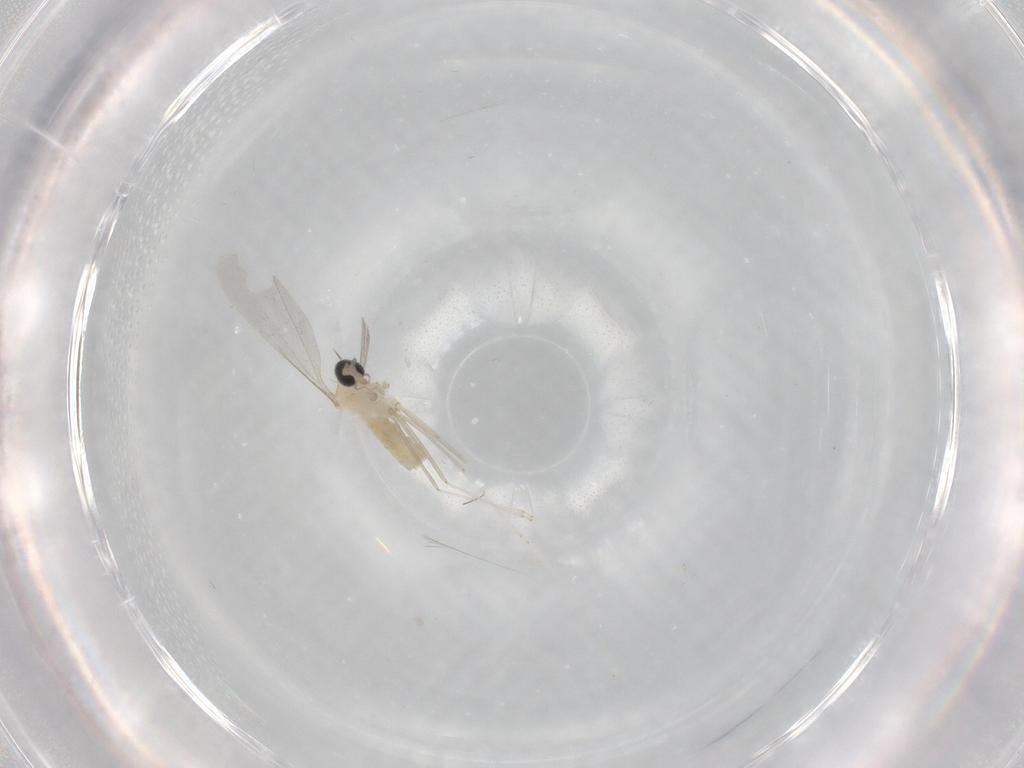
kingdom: Animalia
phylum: Arthropoda
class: Insecta
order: Diptera
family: Cecidomyiidae
